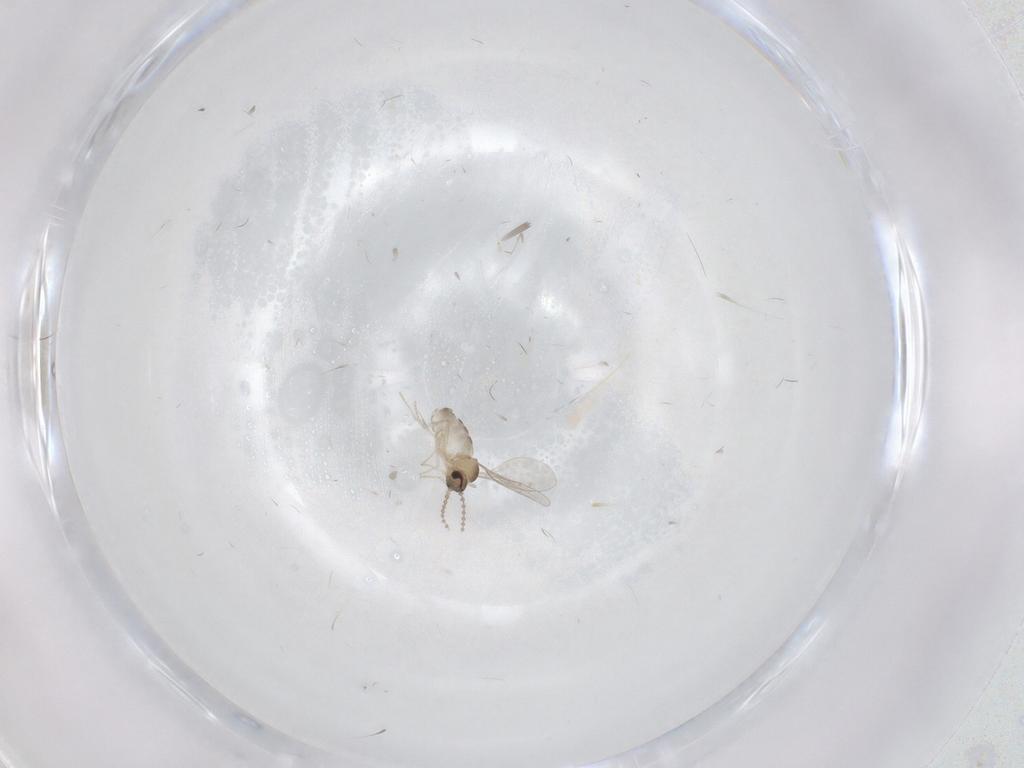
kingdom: Animalia
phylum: Arthropoda
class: Insecta
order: Diptera
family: Cecidomyiidae
